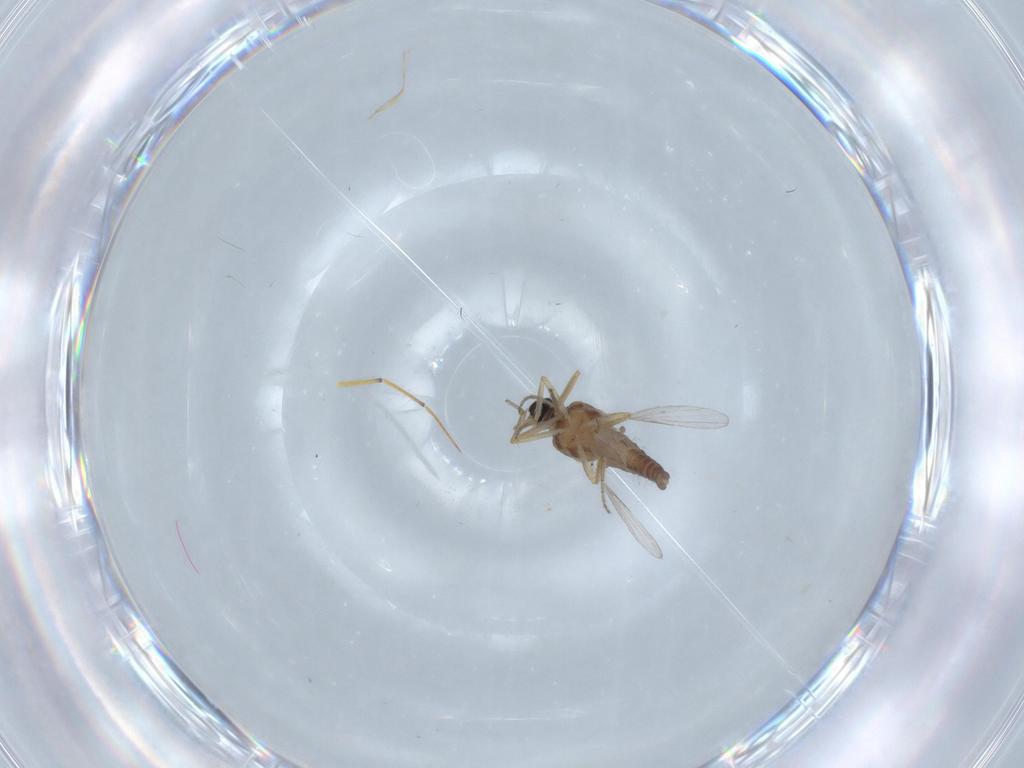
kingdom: Animalia
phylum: Arthropoda
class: Insecta
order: Diptera
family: Ceratopogonidae
